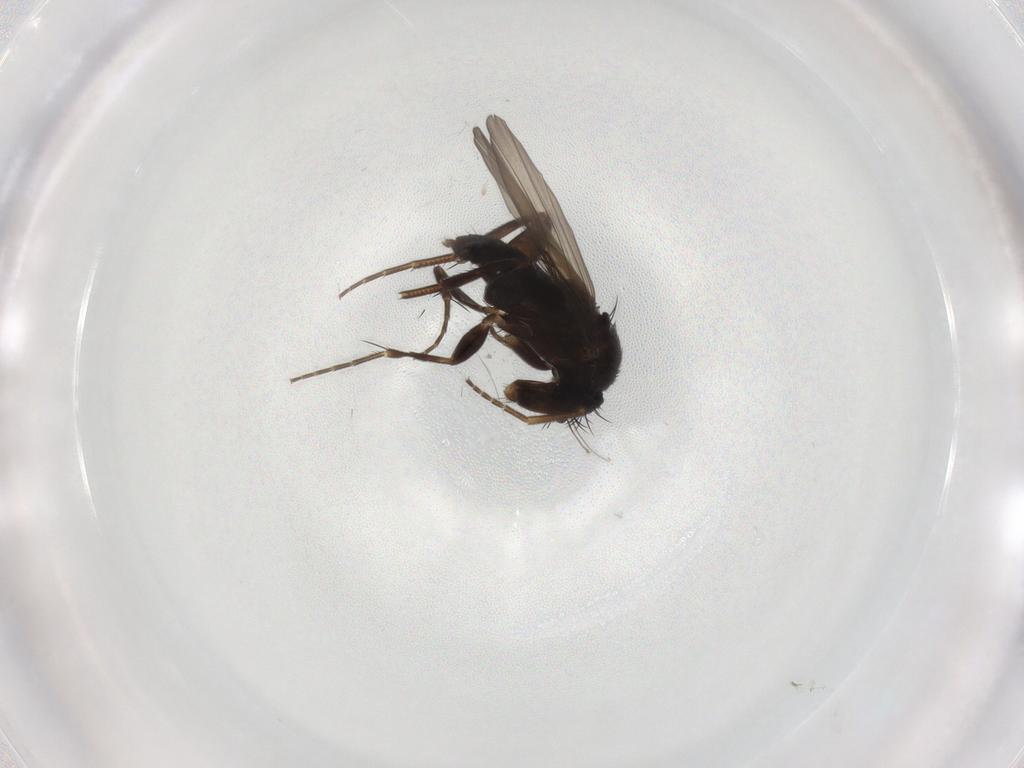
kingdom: Animalia
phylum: Arthropoda
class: Insecta
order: Diptera
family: Phoridae
